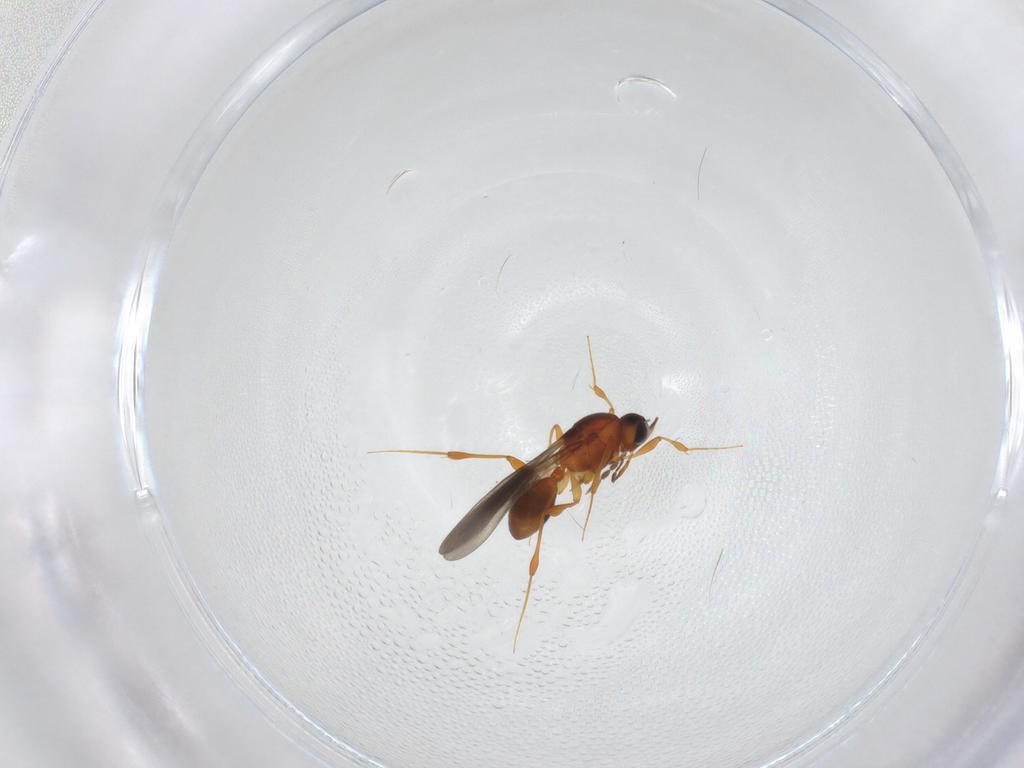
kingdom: Animalia
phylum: Arthropoda
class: Insecta
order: Hymenoptera
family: Platygastridae
